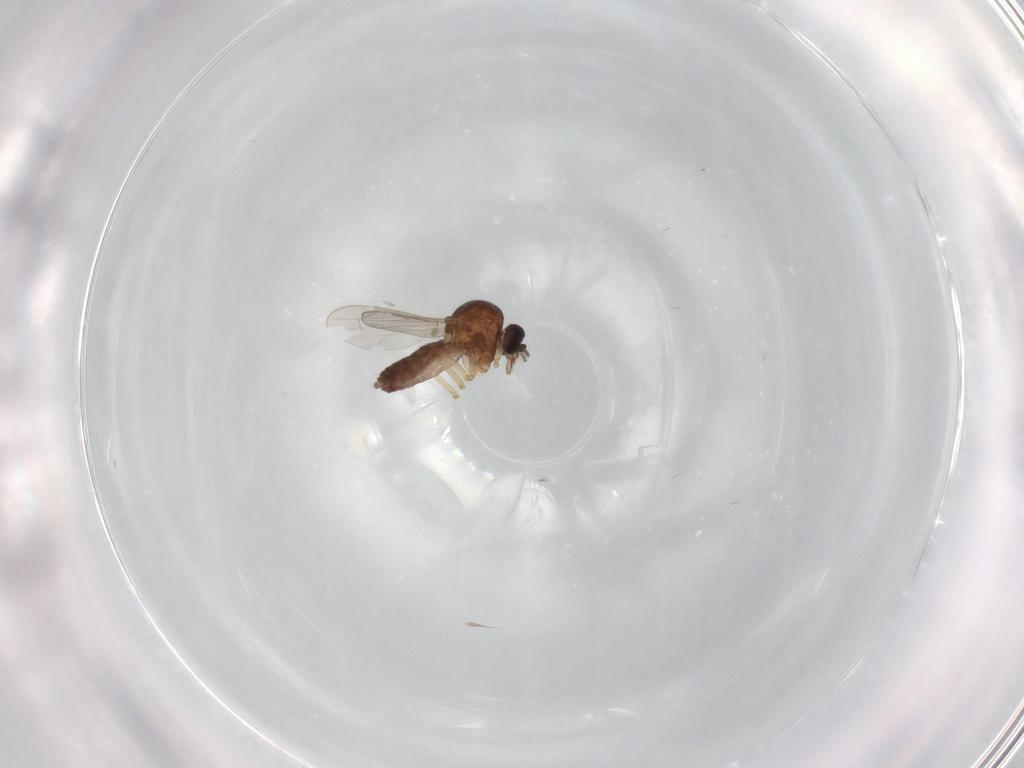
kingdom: Animalia
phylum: Arthropoda
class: Insecta
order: Diptera
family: Ceratopogonidae
